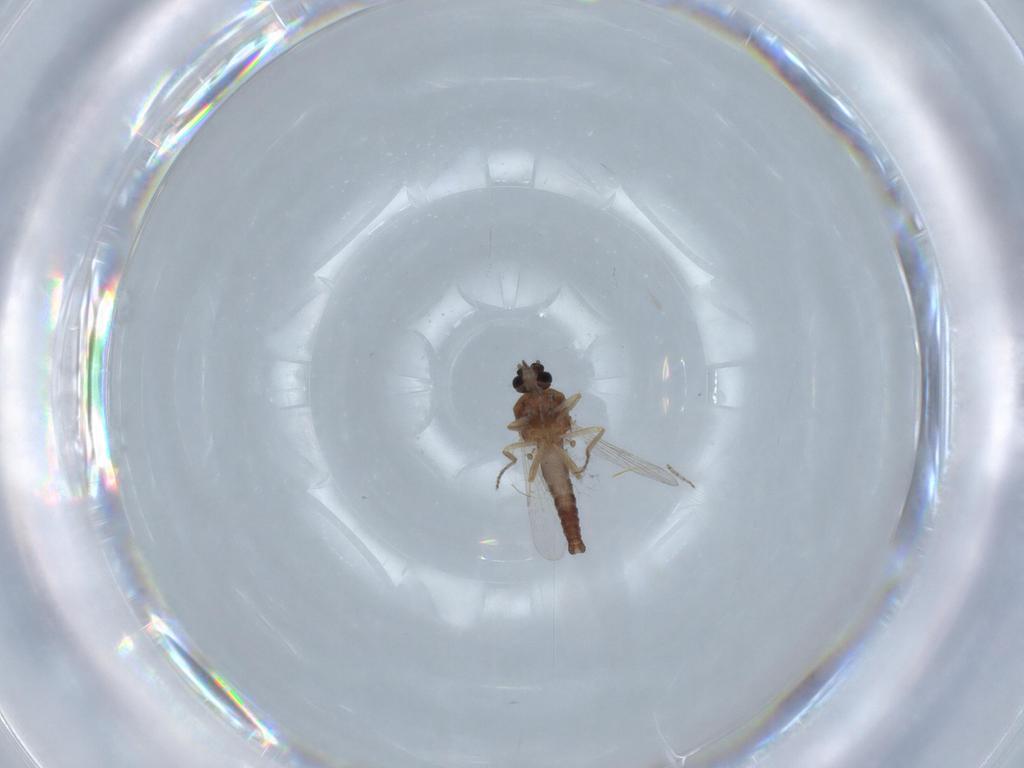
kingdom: Animalia
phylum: Arthropoda
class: Insecta
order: Diptera
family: Ceratopogonidae
